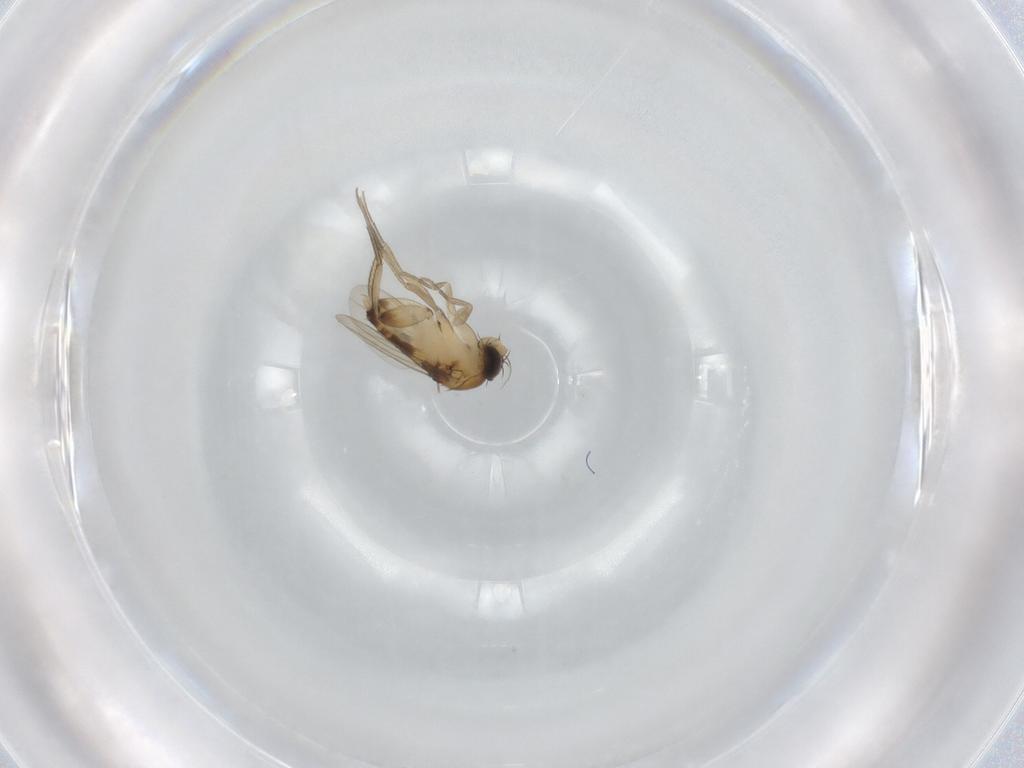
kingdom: Animalia
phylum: Arthropoda
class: Insecta
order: Diptera
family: Phoridae
